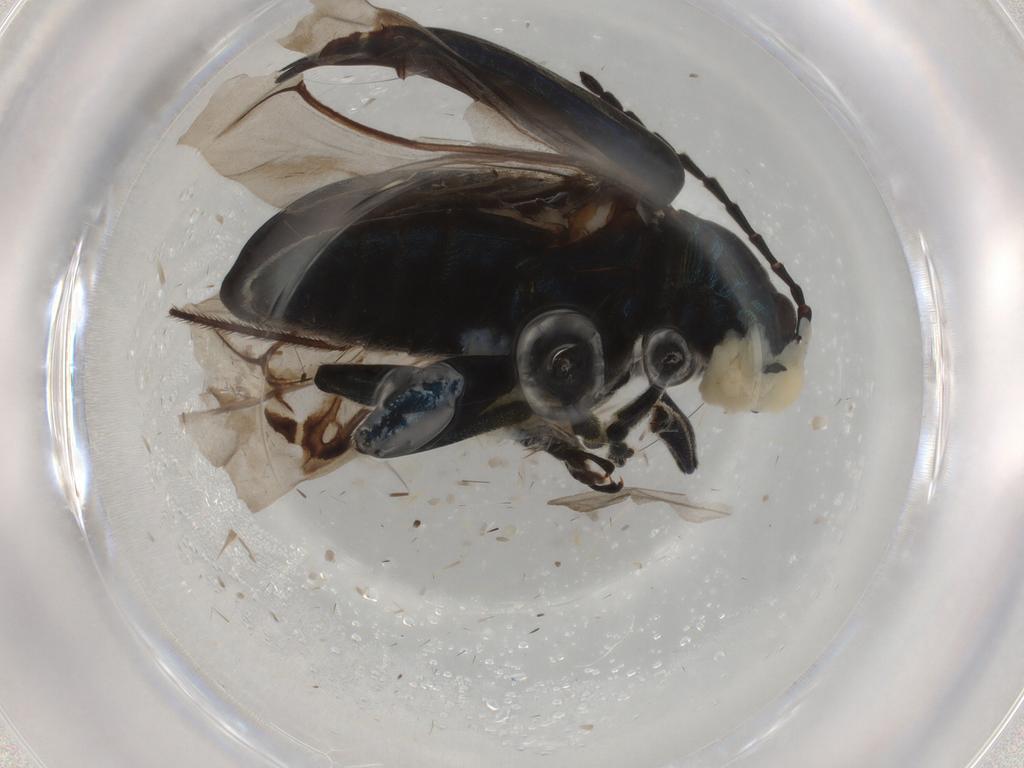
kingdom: Animalia
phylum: Arthropoda
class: Insecta
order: Coleoptera
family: Chrysomelidae
